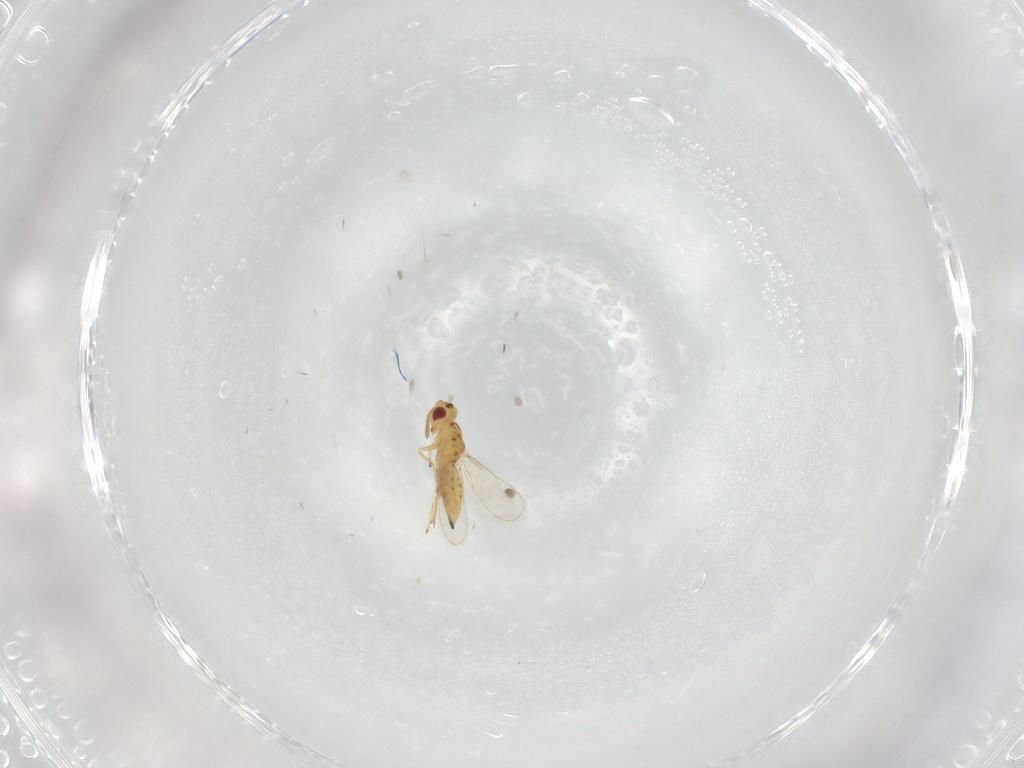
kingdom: Animalia
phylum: Arthropoda
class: Insecta
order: Hymenoptera
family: Eulophidae
